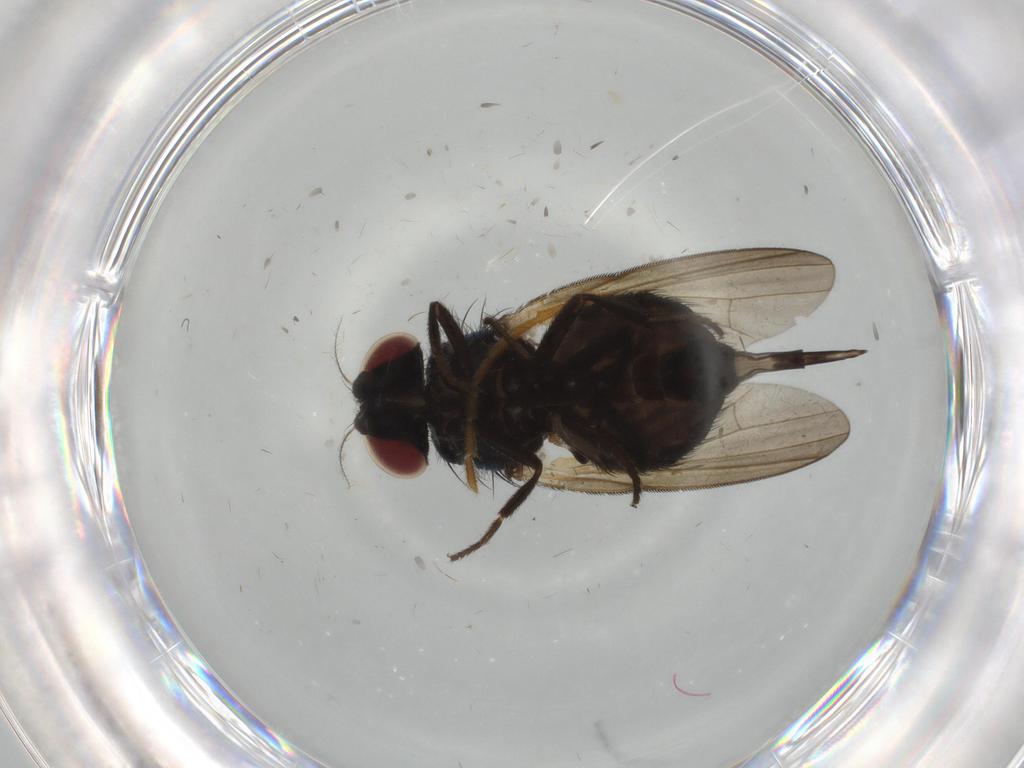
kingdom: Animalia
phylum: Arthropoda
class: Insecta
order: Diptera
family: Lonchaeidae
